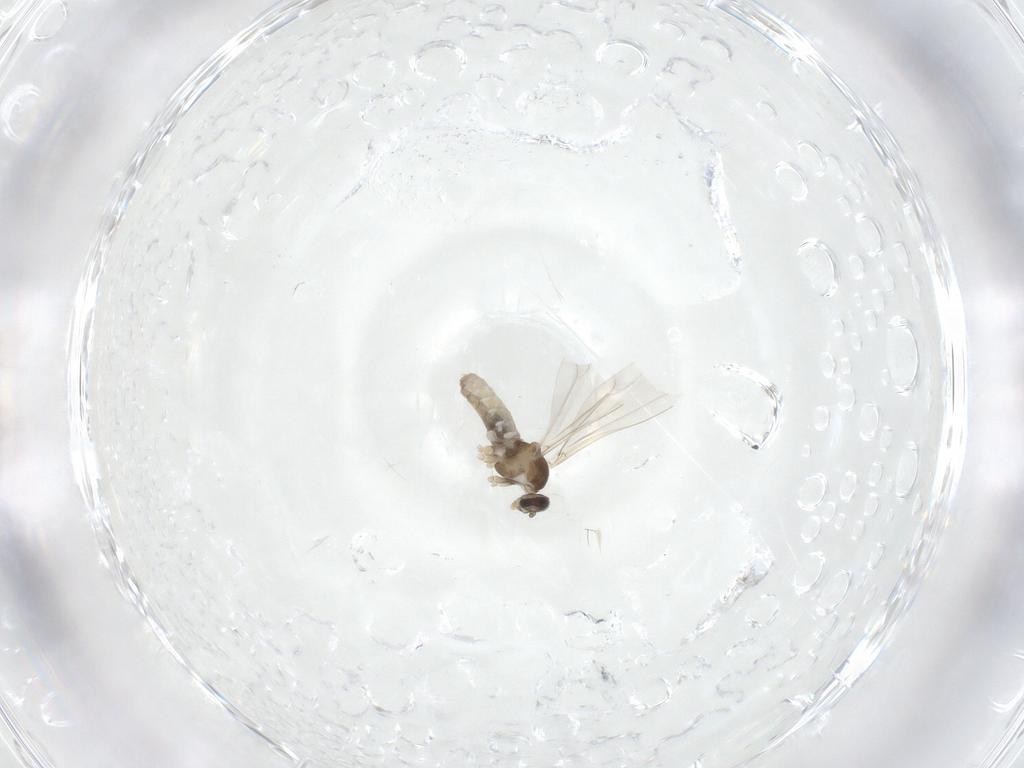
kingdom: Animalia
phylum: Arthropoda
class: Insecta
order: Diptera
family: Cecidomyiidae
